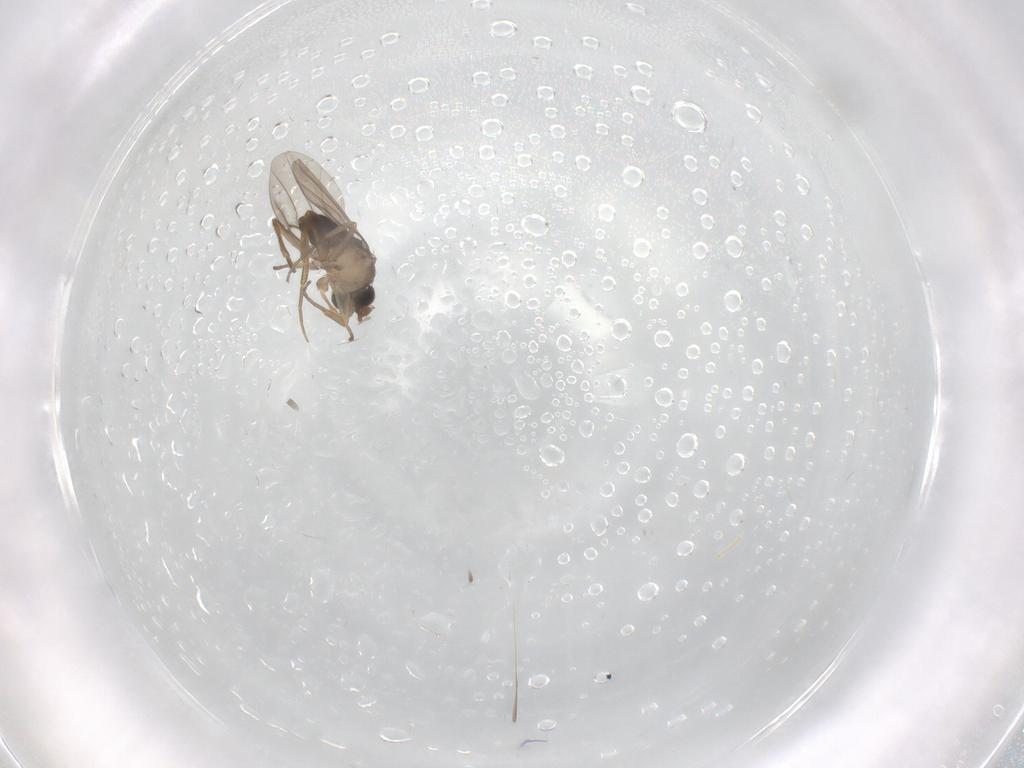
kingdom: Animalia
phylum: Arthropoda
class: Insecta
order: Diptera
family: Ditomyiidae
